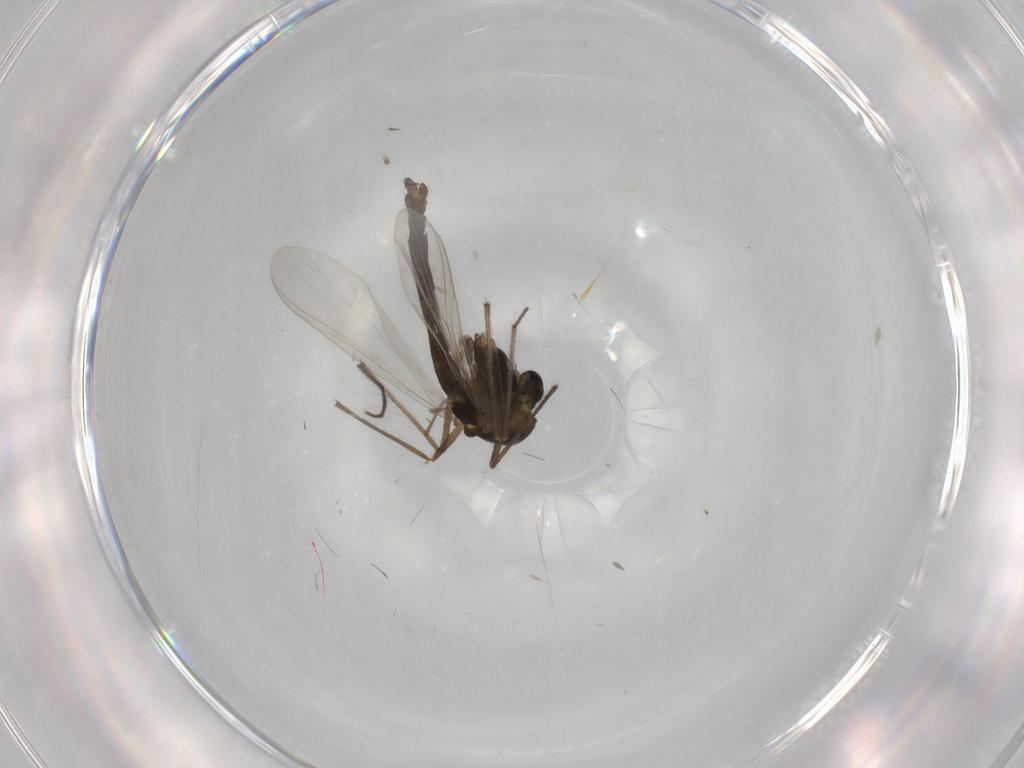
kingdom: Animalia
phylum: Arthropoda
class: Insecta
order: Diptera
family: Chironomidae
